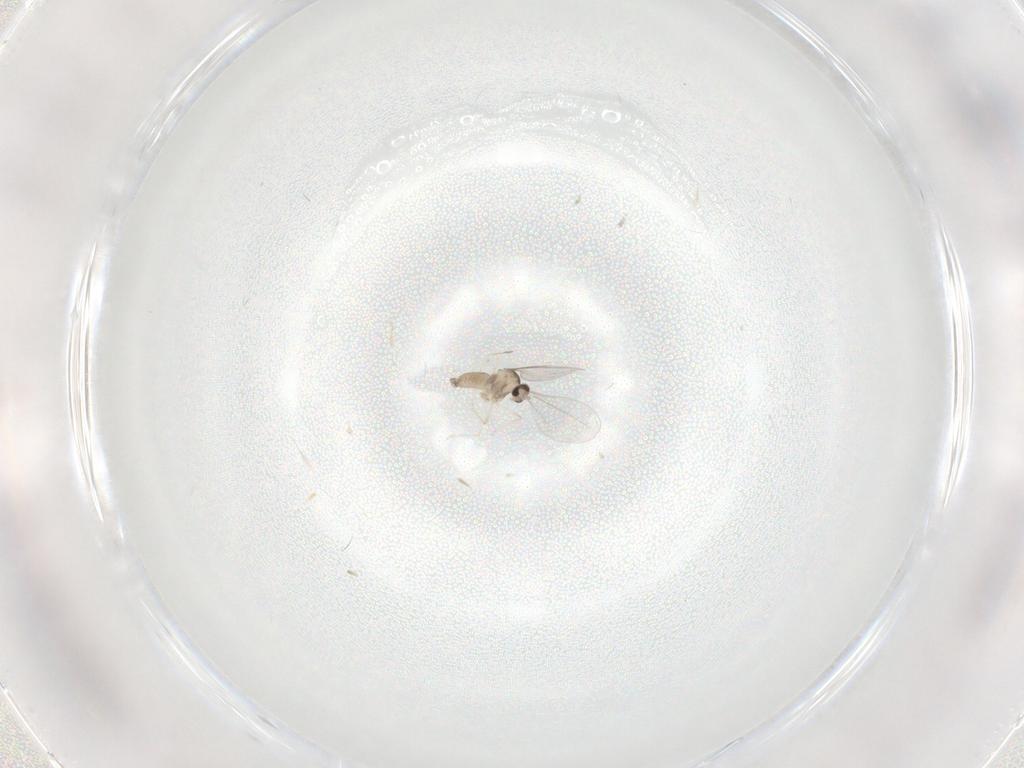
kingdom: Animalia
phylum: Arthropoda
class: Insecta
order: Diptera
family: Cecidomyiidae
